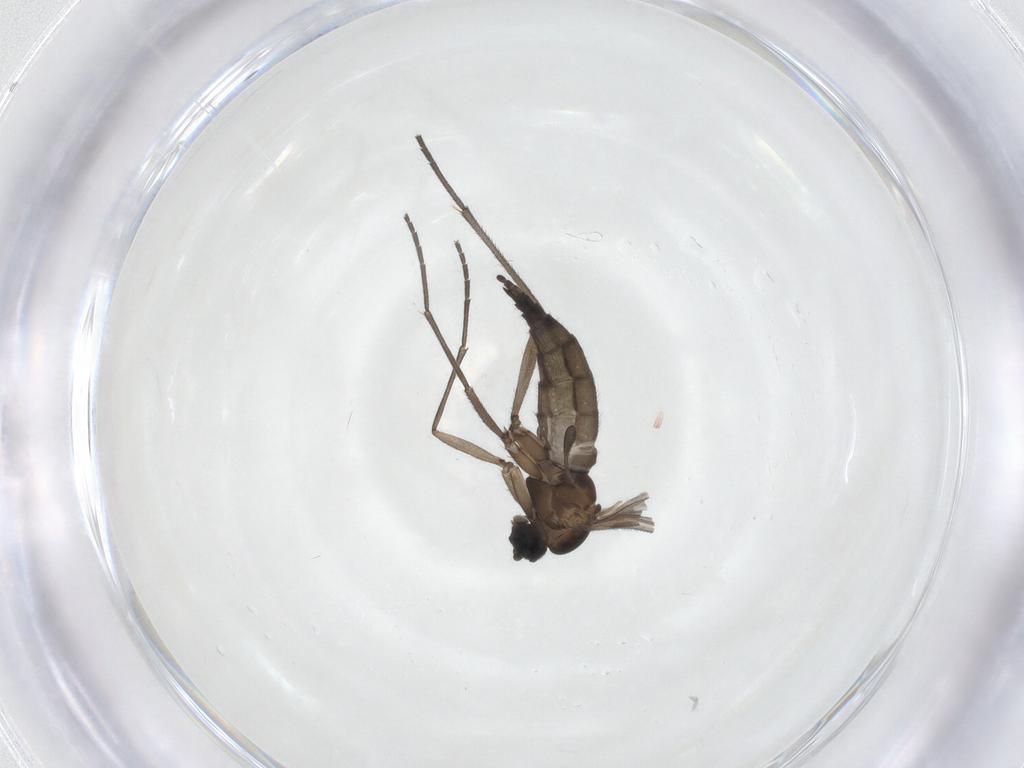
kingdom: Animalia
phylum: Arthropoda
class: Insecta
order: Diptera
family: Sciaridae
